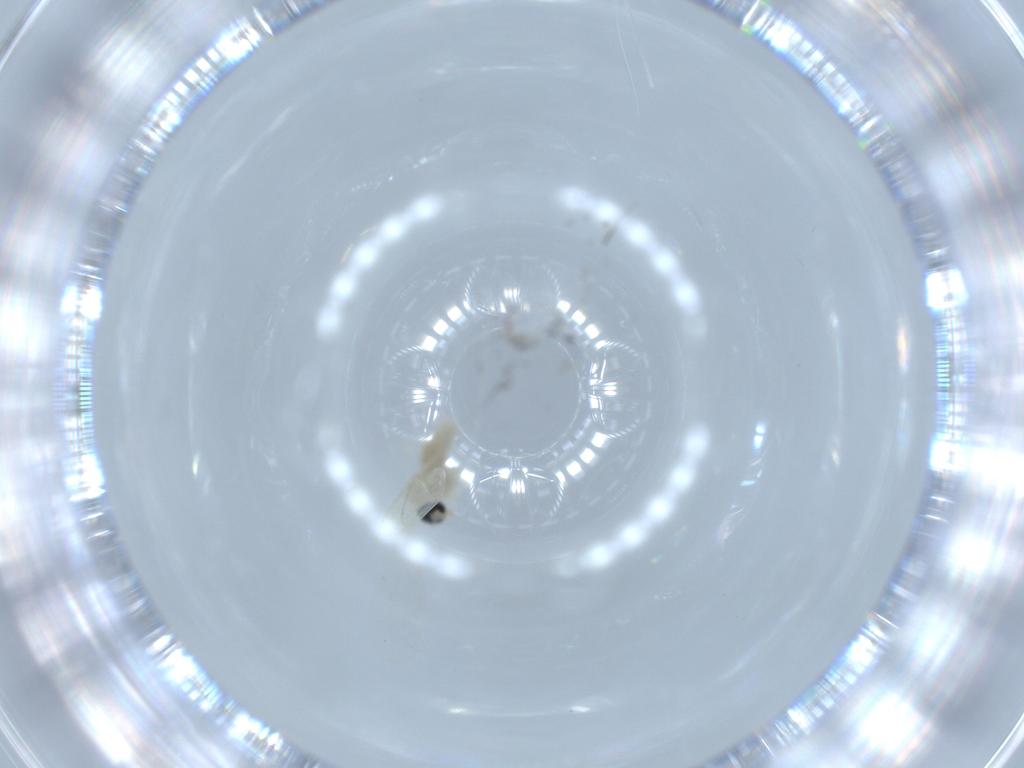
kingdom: Animalia
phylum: Arthropoda
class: Insecta
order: Diptera
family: Cecidomyiidae
